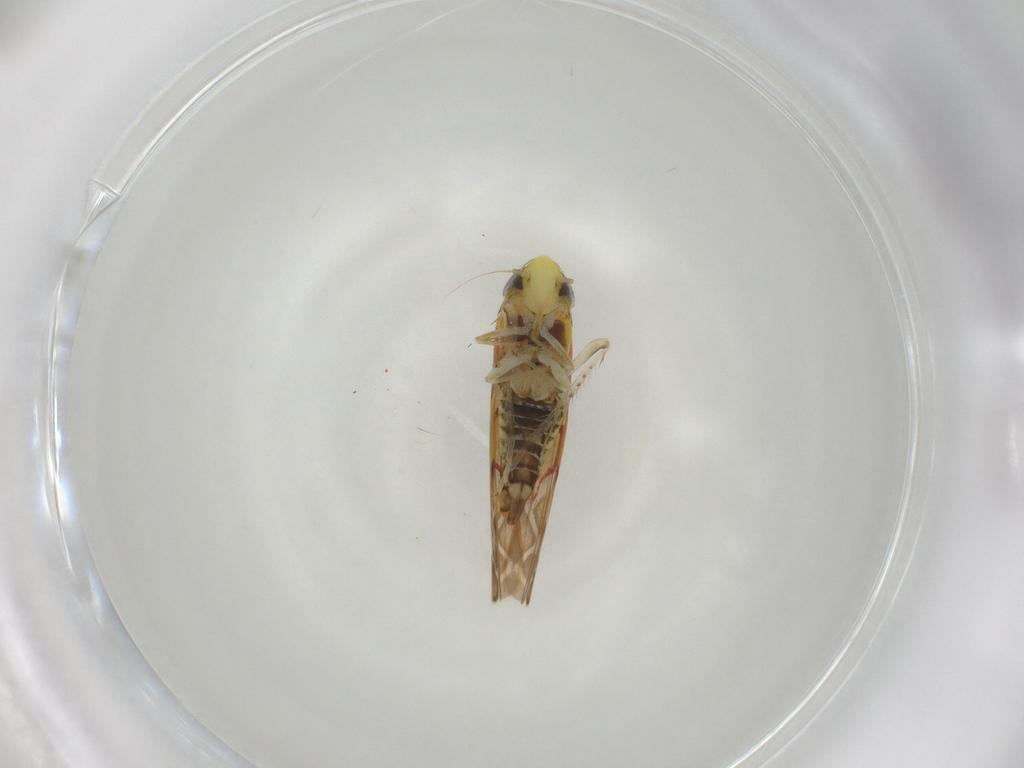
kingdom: Animalia
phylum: Arthropoda
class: Insecta
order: Hemiptera
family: Cicadellidae
